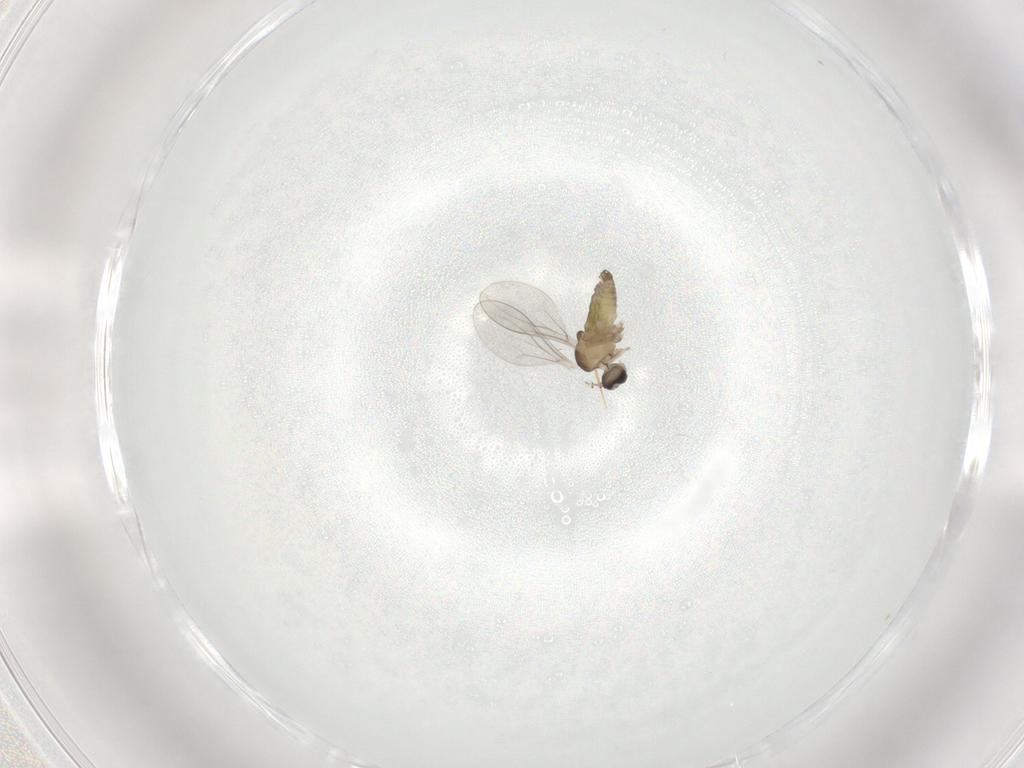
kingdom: Animalia
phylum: Arthropoda
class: Insecta
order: Diptera
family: Cecidomyiidae
